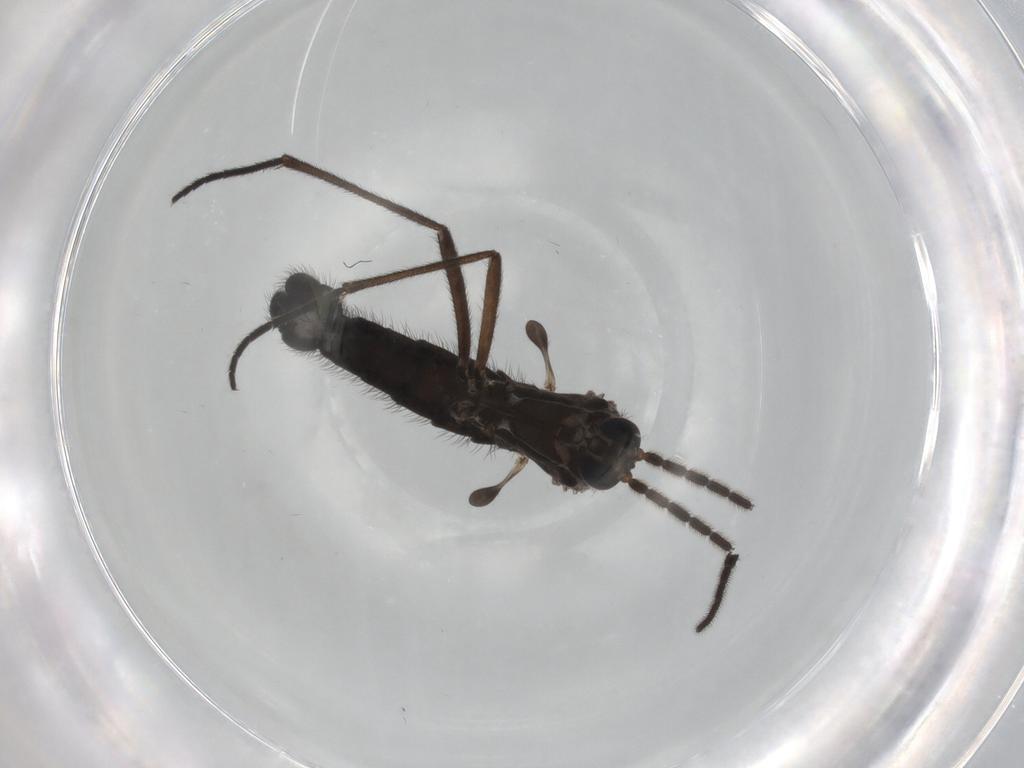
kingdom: Animalia
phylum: Arthropoda
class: Insecta
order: Diptera
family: Sciaridae
